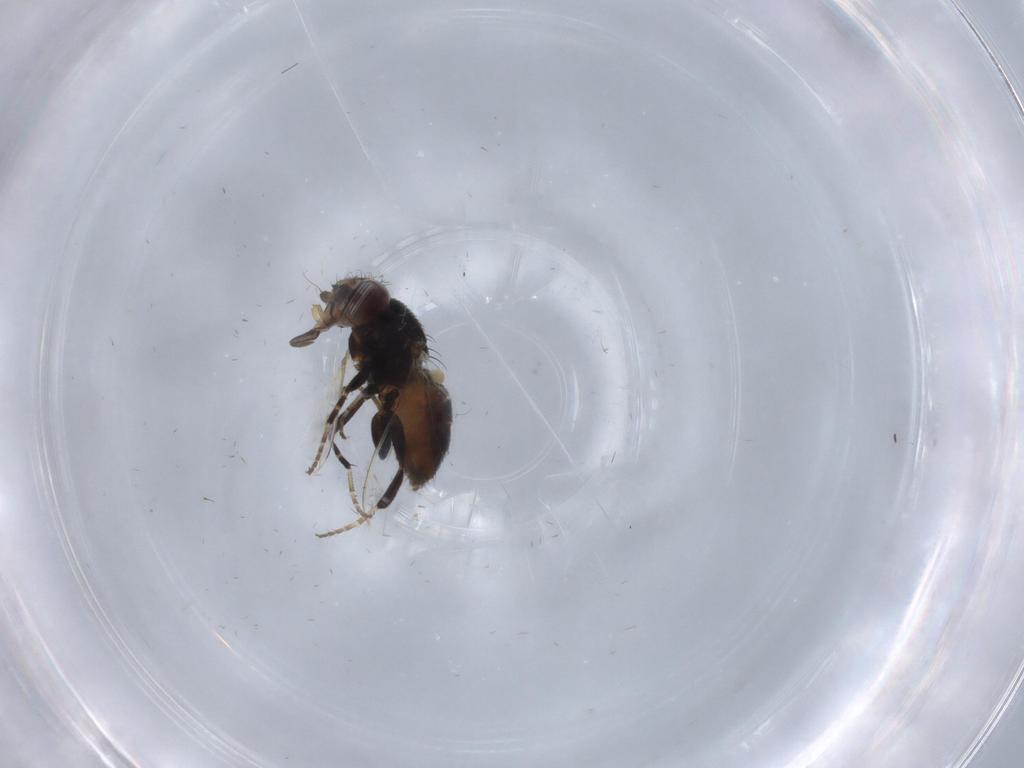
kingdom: Animalia
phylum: Arthropoda
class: Insecta
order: Diptera
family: Milichiidae
